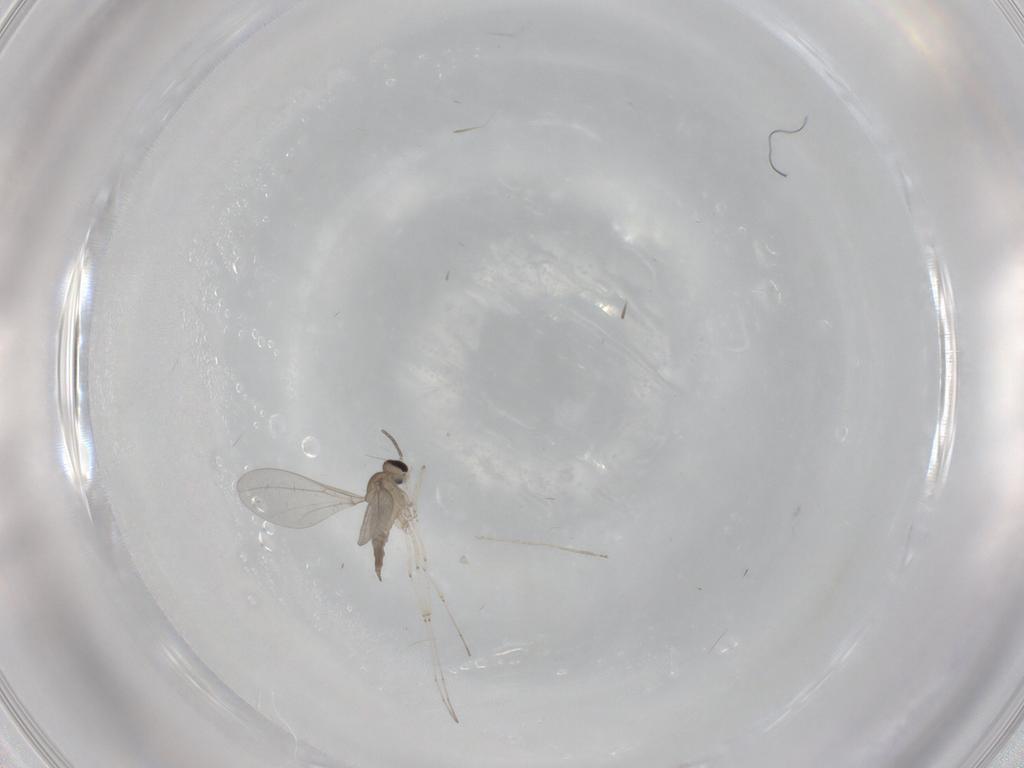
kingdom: Animalia
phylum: Arthropoda
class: Insecta
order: Diptera
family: Cecidomyiidae
